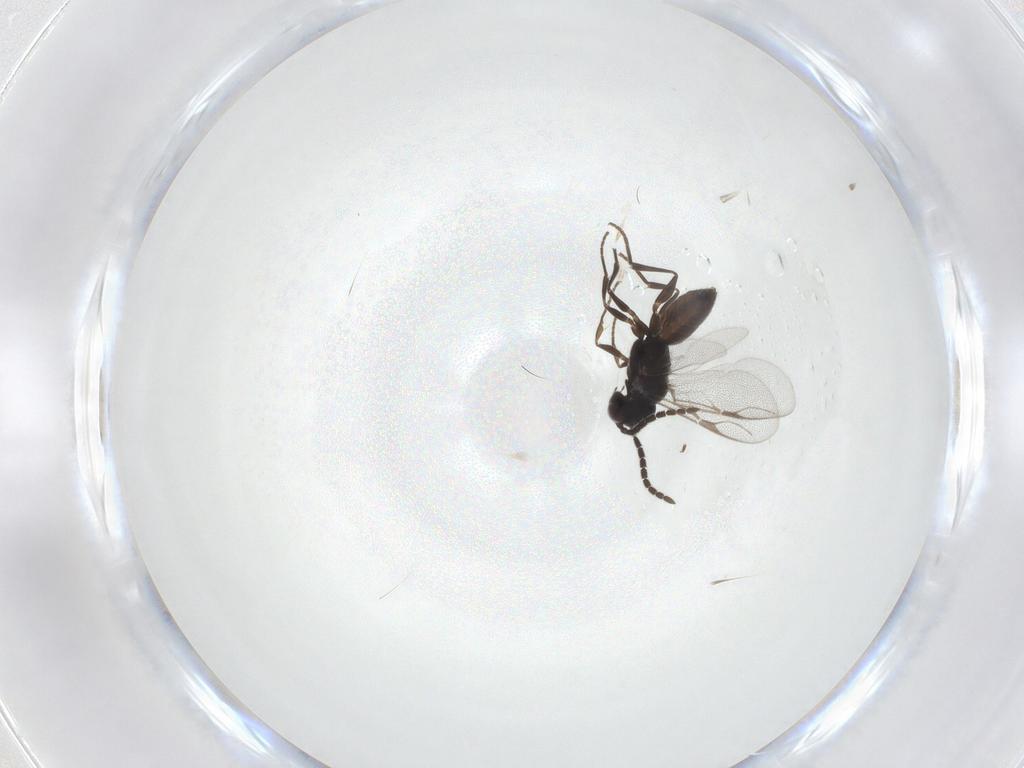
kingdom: Animalia
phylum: Arthropoda
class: Insecta
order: Hymenoptera
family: Dryinidae
